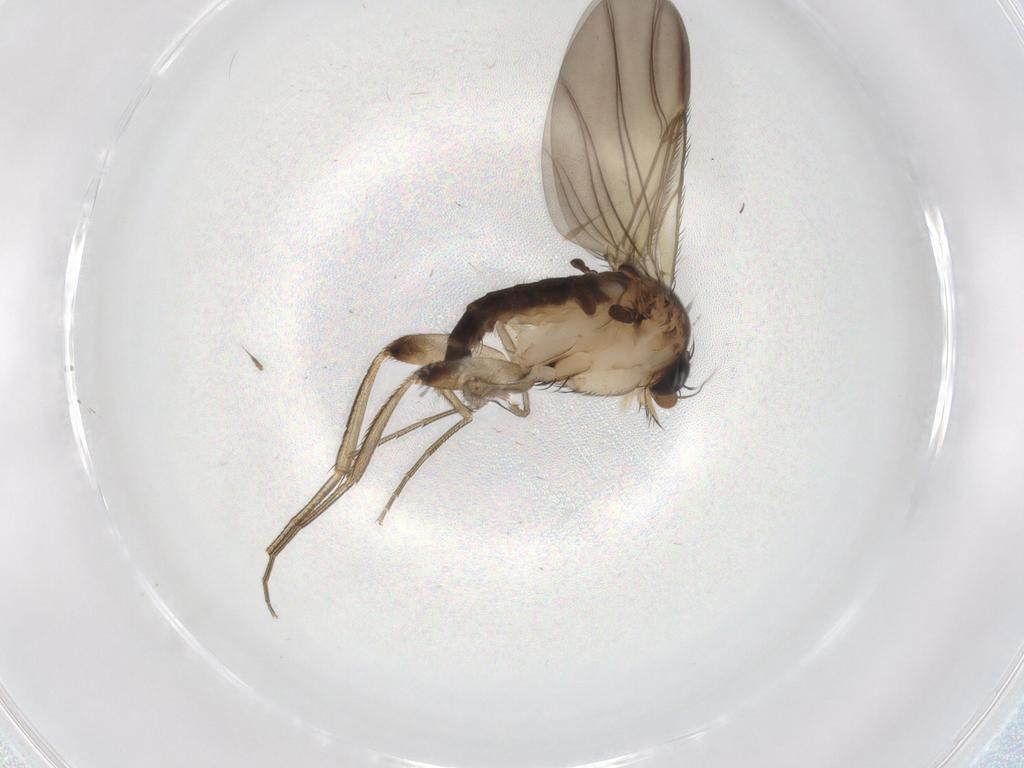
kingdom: Animalia
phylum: Arthropoda
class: Insecta
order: Diptera
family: Phoridae
